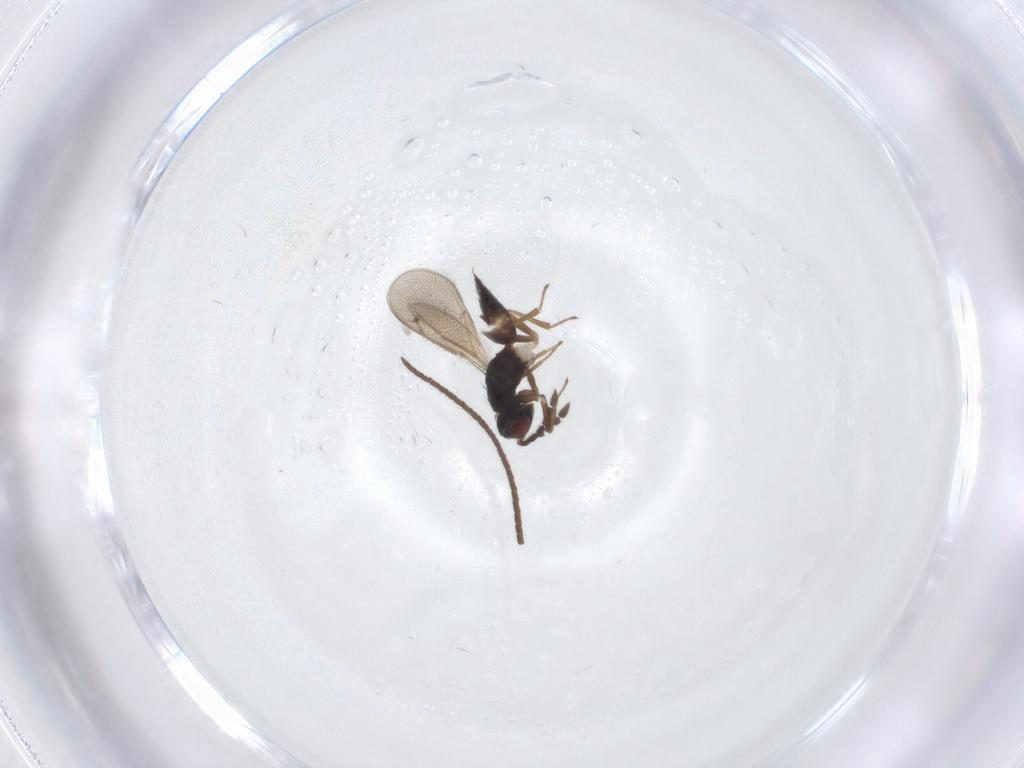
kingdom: Animalia
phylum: Arthropoda
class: Insecta
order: Hymenoptera
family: Eulophidae
